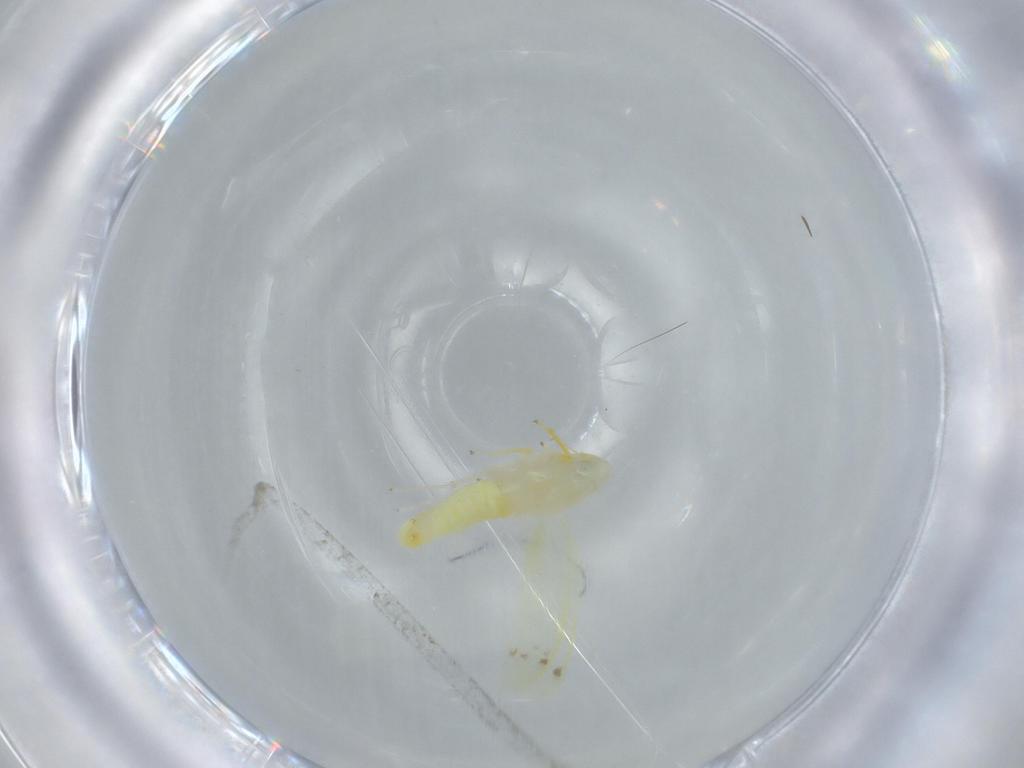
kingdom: Animalia
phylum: Arthropoda
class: Insecta
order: Hemiptera
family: Cicadellidae
